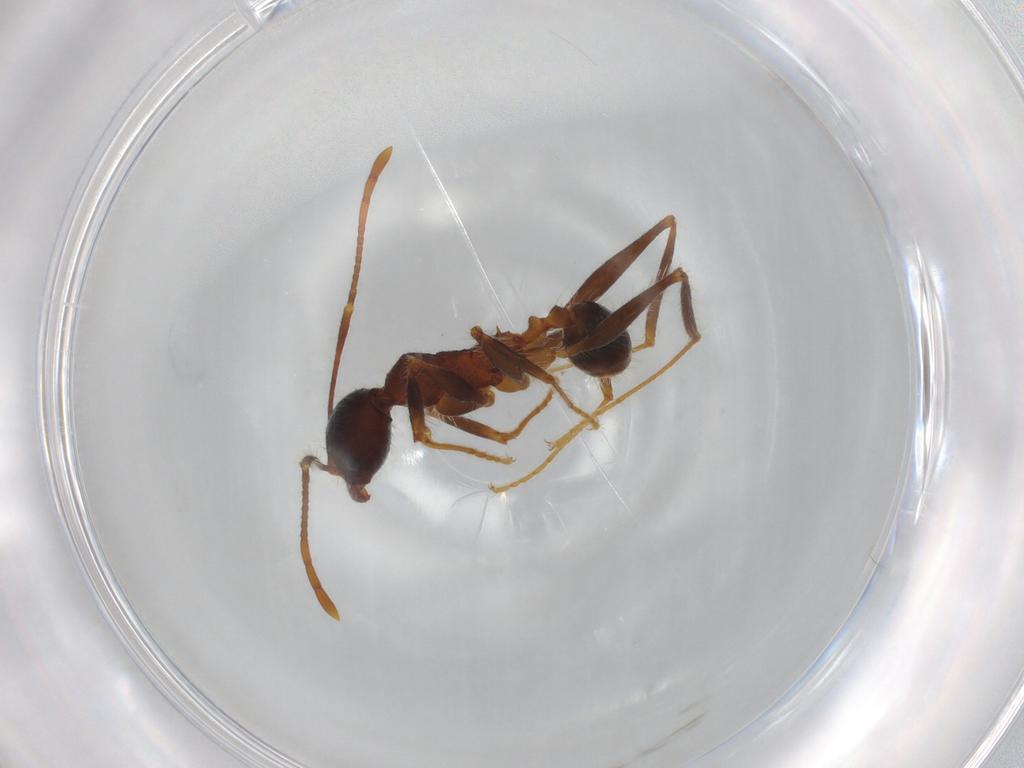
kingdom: Animalia
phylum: Arthropoda
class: Insecta
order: Hymenoptera
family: Formicidae
